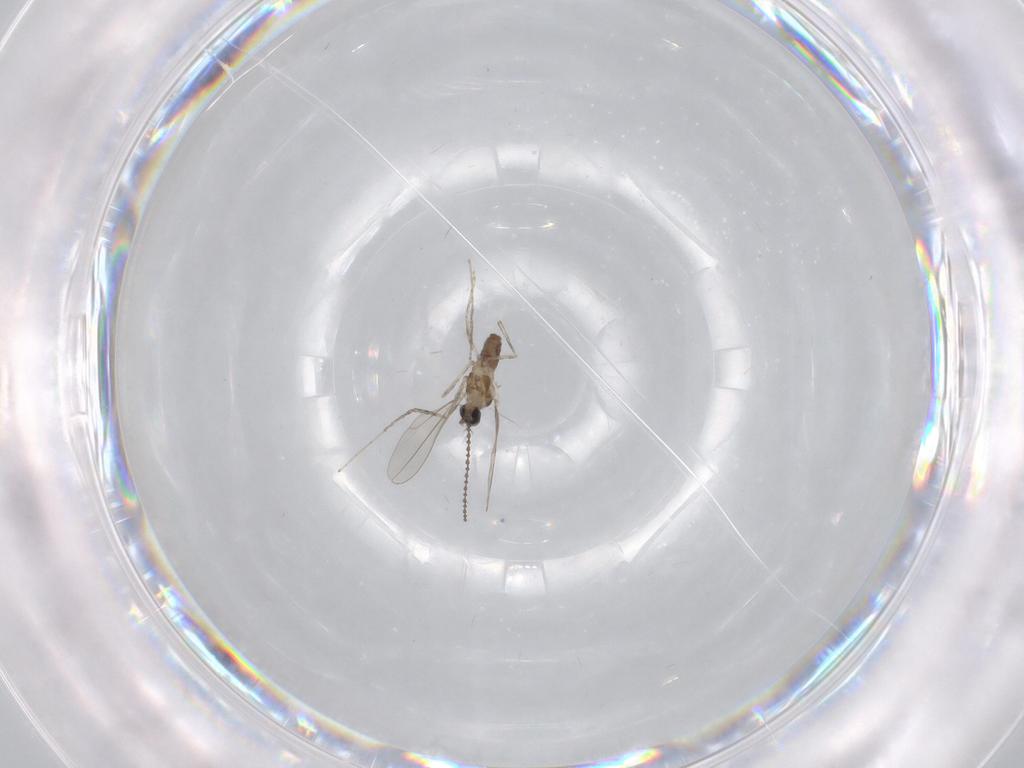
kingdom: Animalia
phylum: Arthropoda
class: Insecta
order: Diptera
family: Cecidomyiidae
